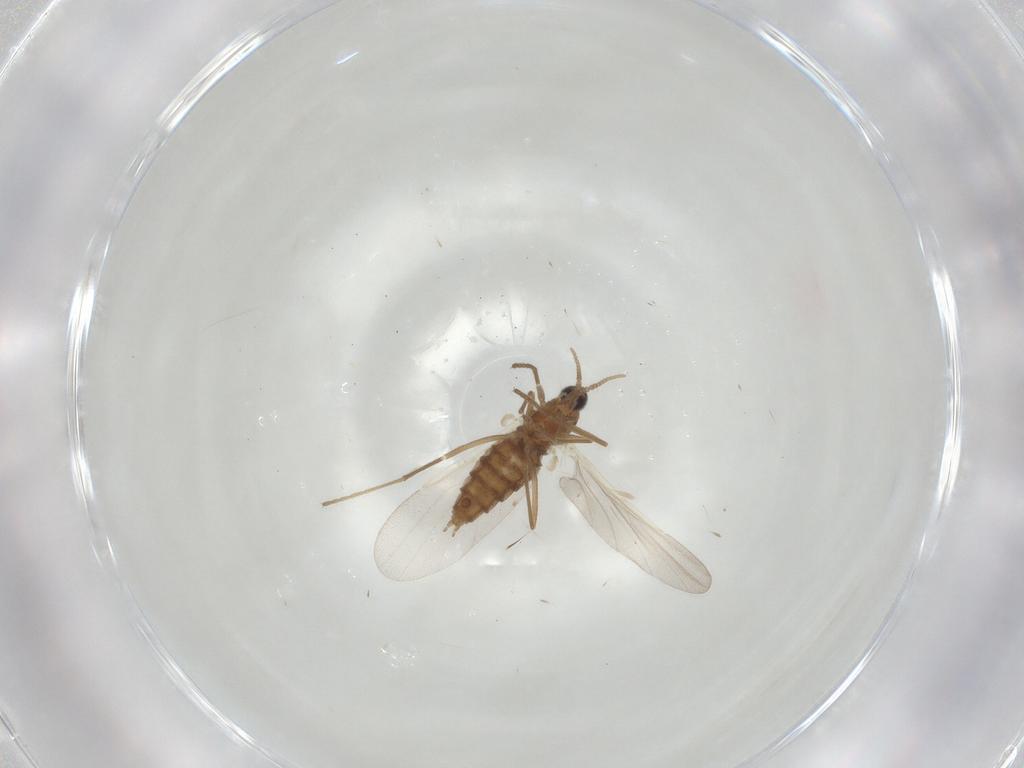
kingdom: Animalia
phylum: Arthropoda
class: Insecta
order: Diptera
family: Cecidomyiidae
